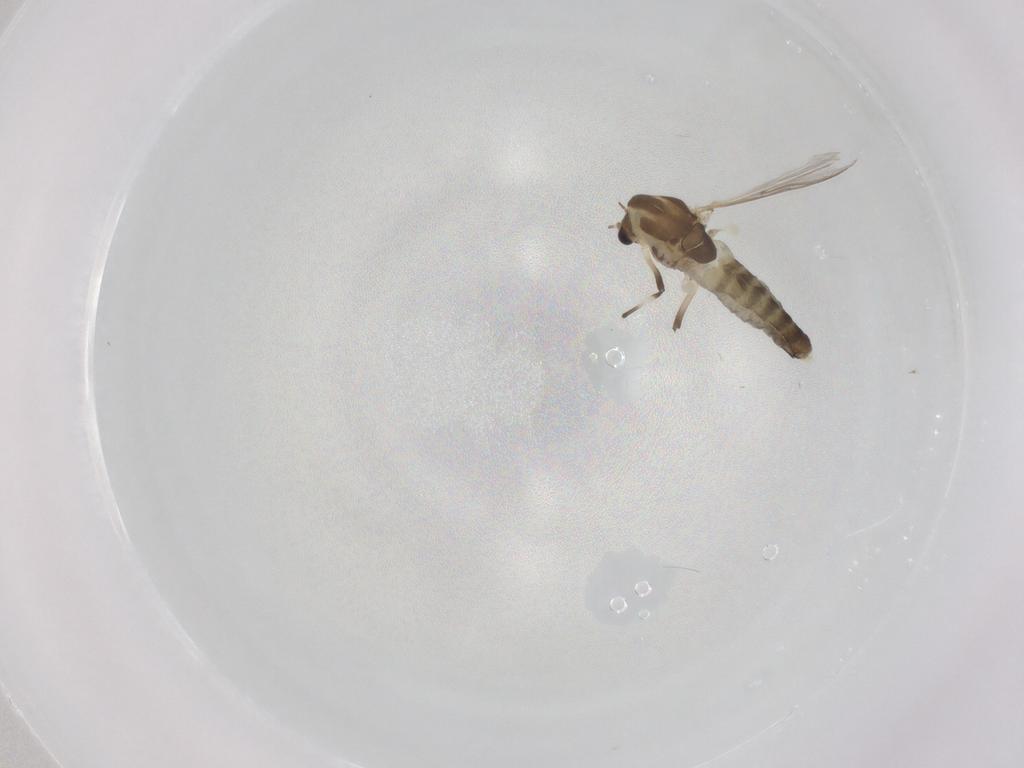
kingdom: Animalia
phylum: Arthropoda
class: Insecta
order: Diptera
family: Chironomidae
